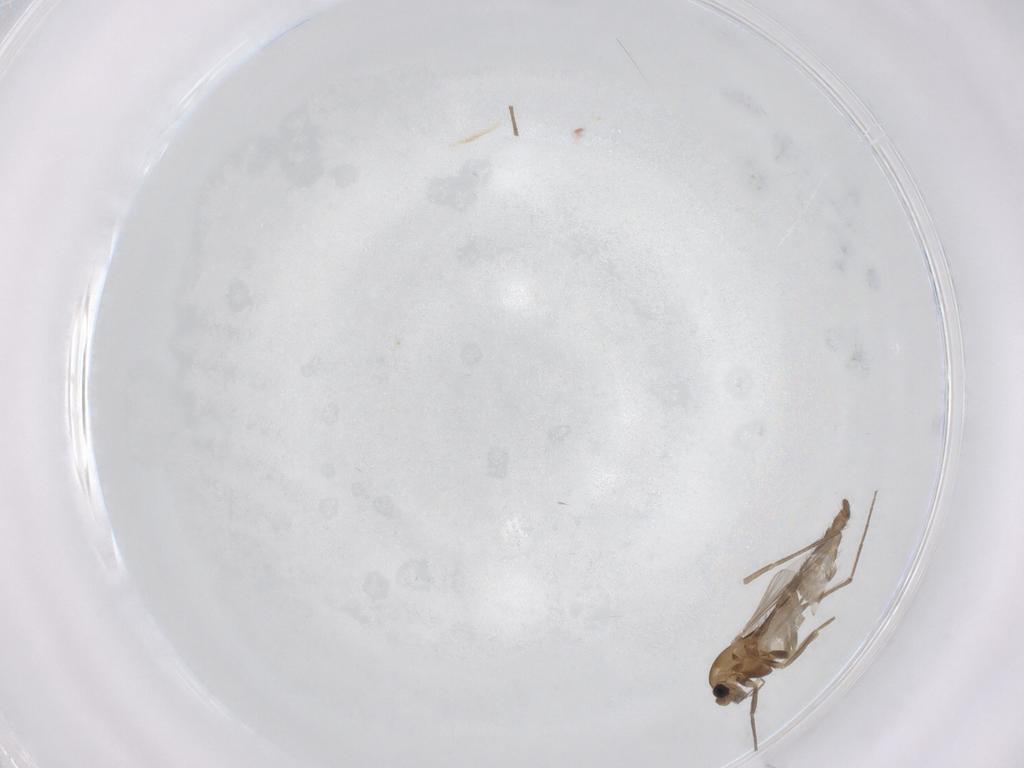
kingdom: Animalia
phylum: Arthropoda
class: Insecta
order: Diptera
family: Chironomidae
